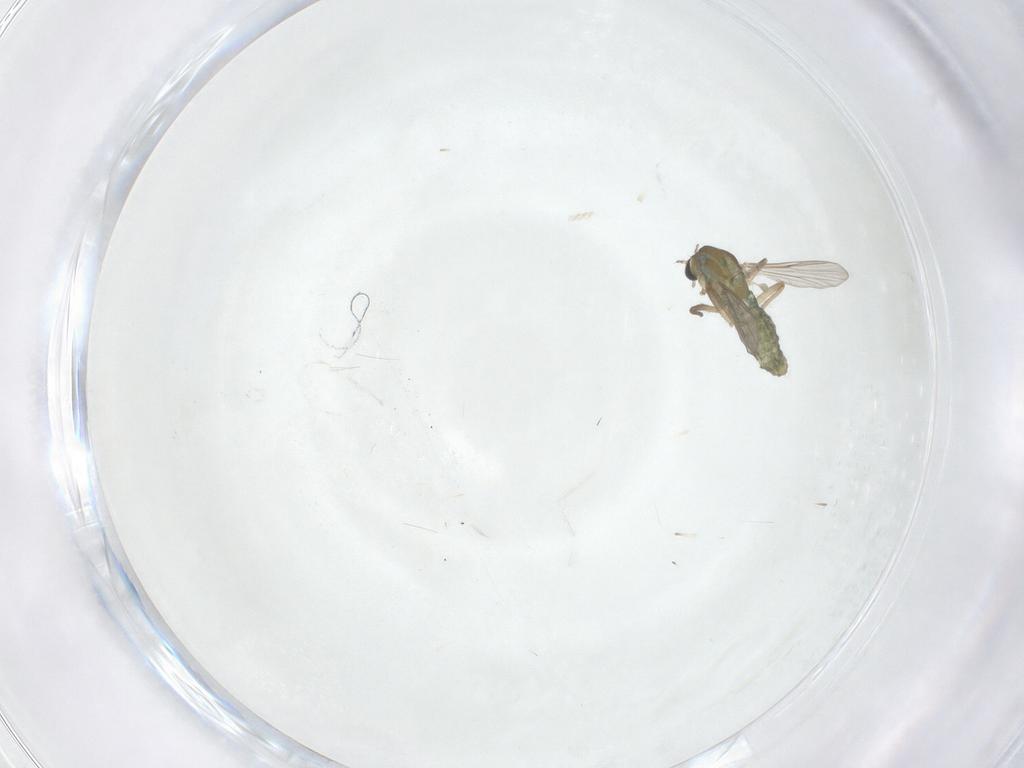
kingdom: Animalia
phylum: Arthropoda
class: Insecta
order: Diptera
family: Chironomidae
